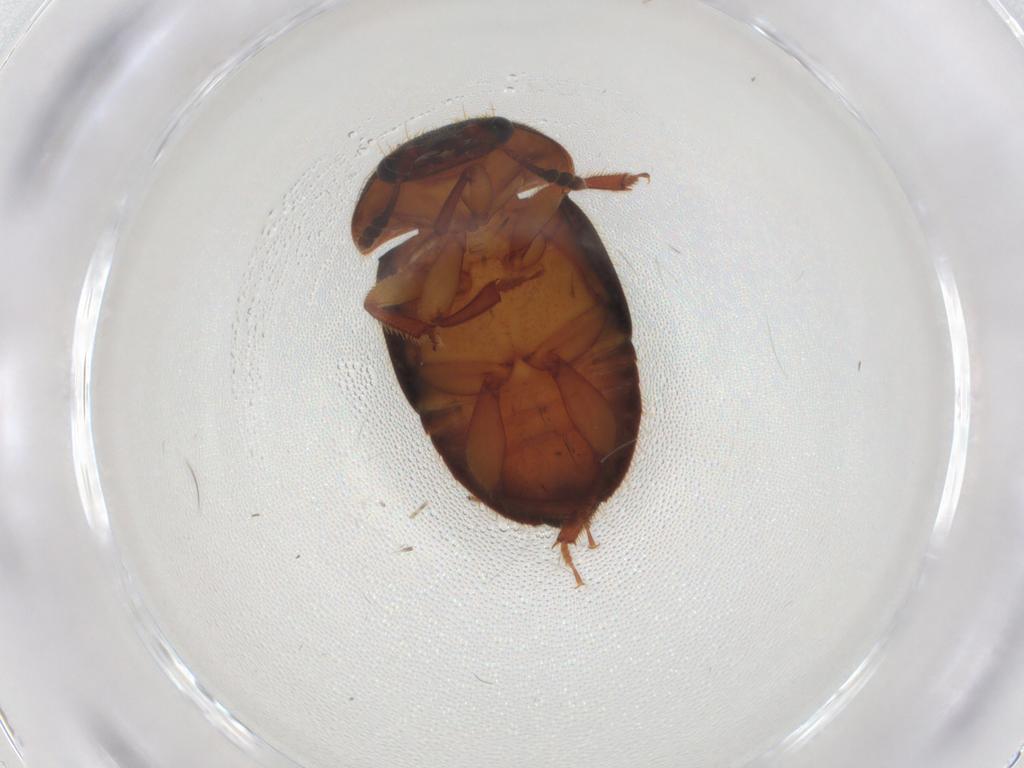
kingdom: Animalia
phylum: Arthropoda
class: Insecta
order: Coleoptera
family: Nitidulidae
